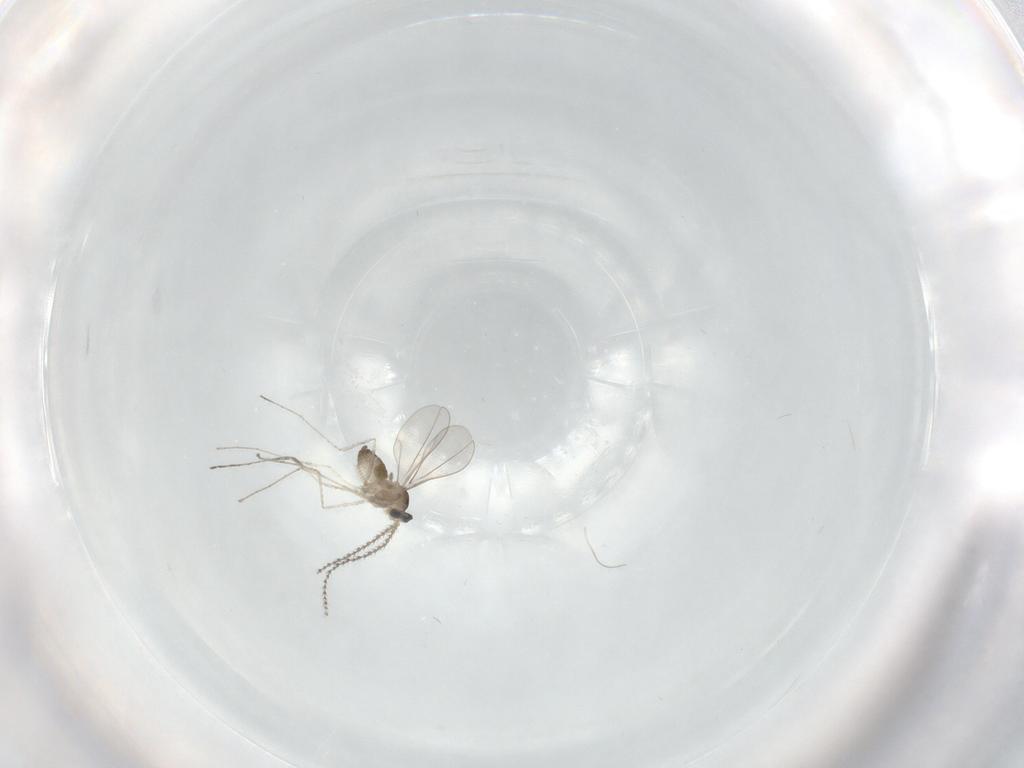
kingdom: Animalia
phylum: Arthropoda
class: Insecta
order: Diptera
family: Cecidomyiidae
